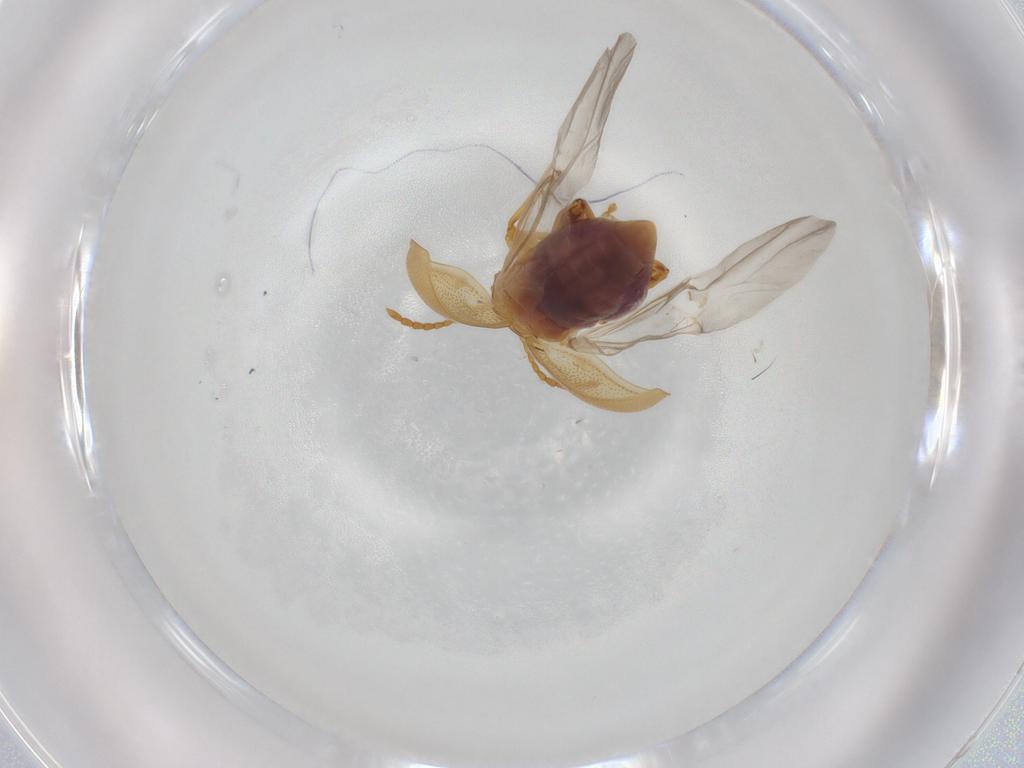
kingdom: Animalia
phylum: Arthropoda
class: Insecta
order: Coleoptera
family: Chrysomelidae
